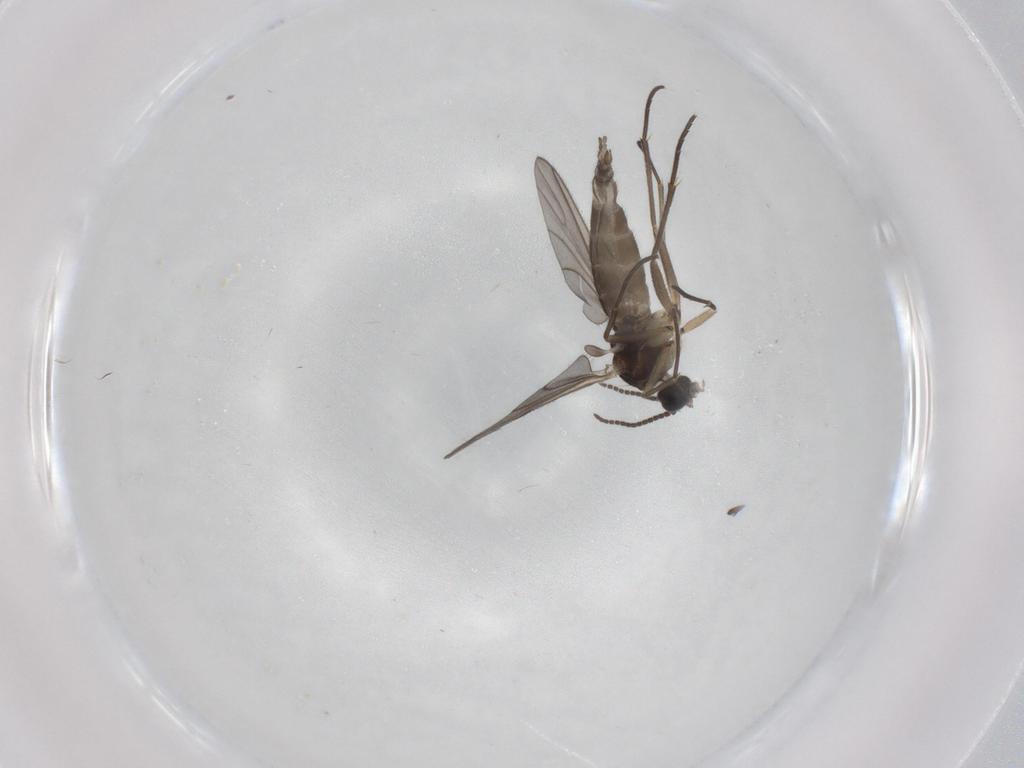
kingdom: Animalia
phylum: Arthropoda
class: Insecta
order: Diptera
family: Sciaridae
